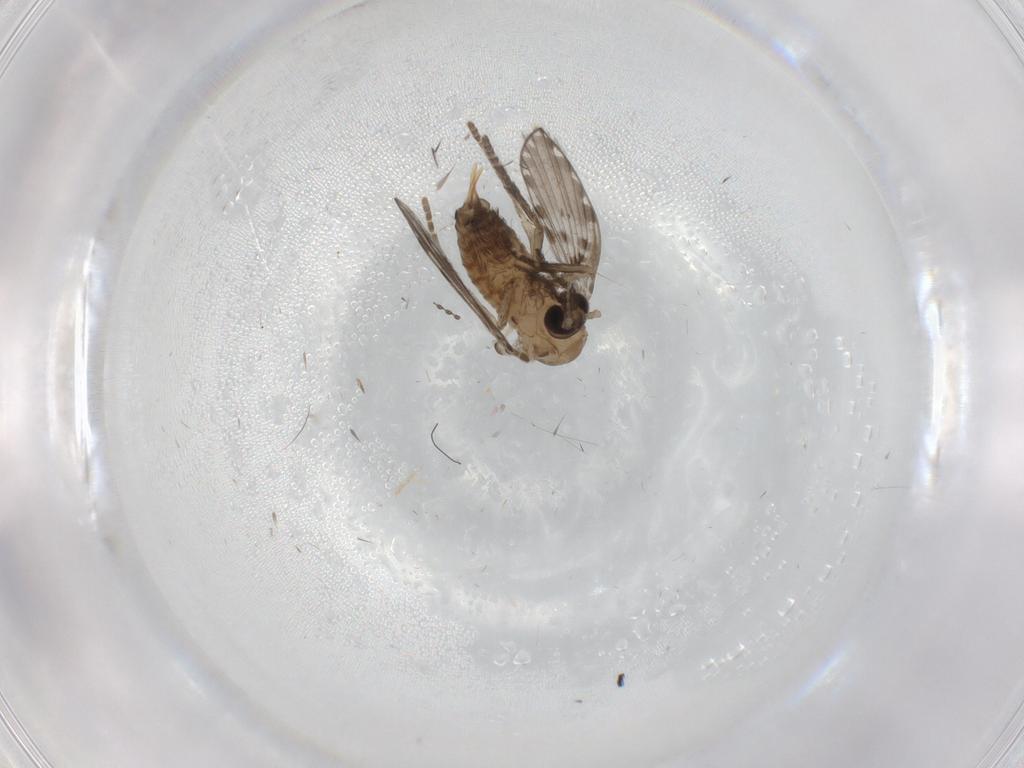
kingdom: Animalia
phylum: Arthropoda
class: Insecta
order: Diptera
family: Psychodidae
